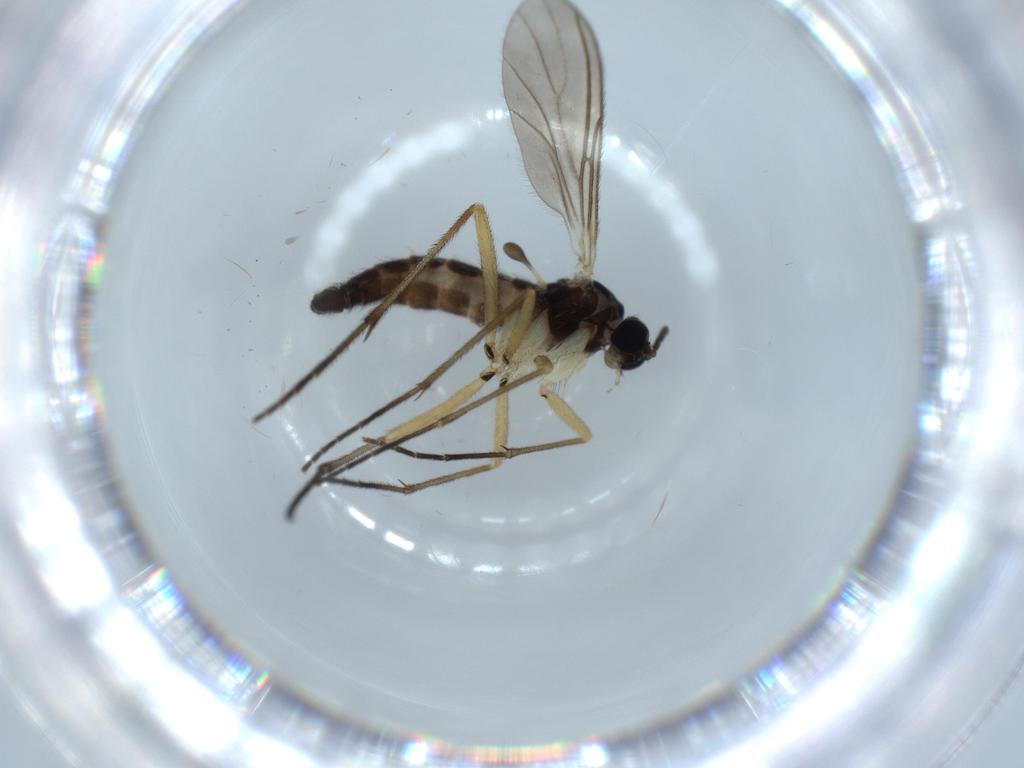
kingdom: Animalia
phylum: Arthropoda
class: Insecta
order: Diptera
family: Sciaridae
